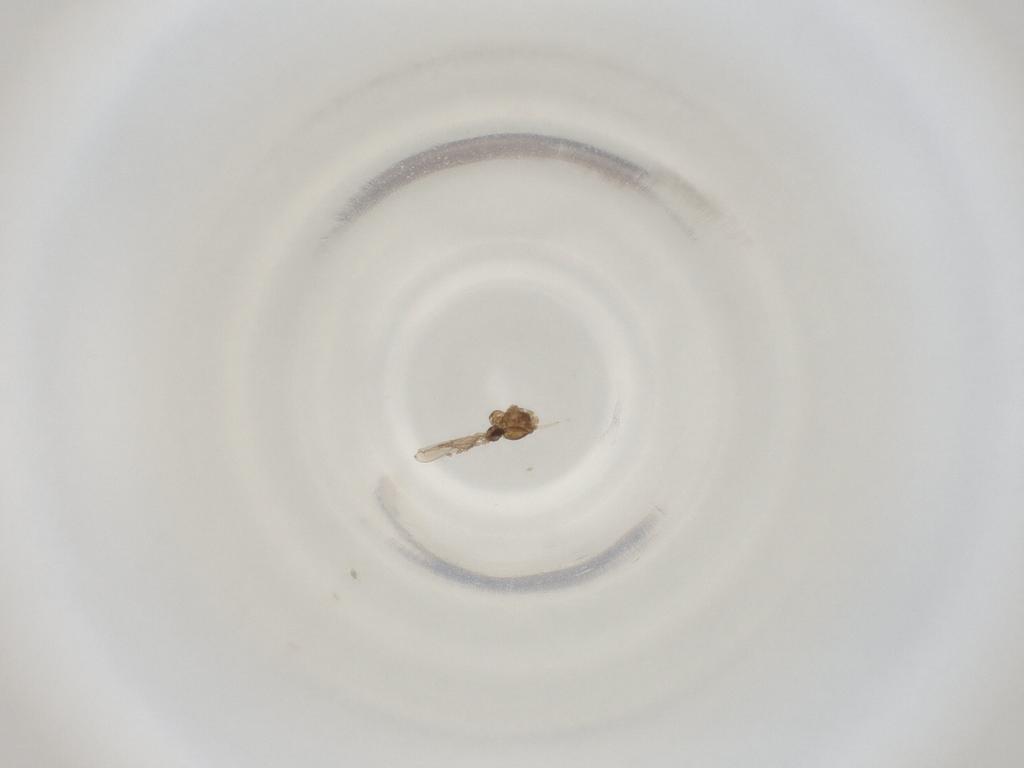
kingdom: Animalia
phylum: Arthropoda
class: Insecta
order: Diptera
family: Cecidomyiidae
